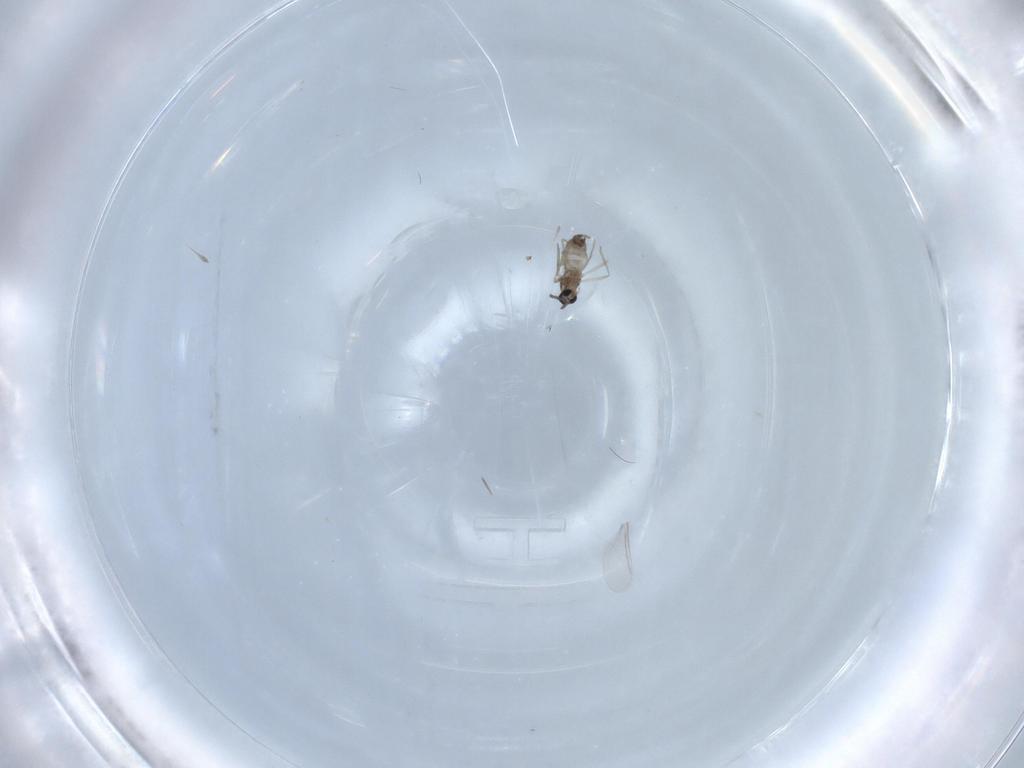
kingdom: Animalia
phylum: Arthropoda
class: Insecta
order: Diptera
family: Cecidomyiidae
